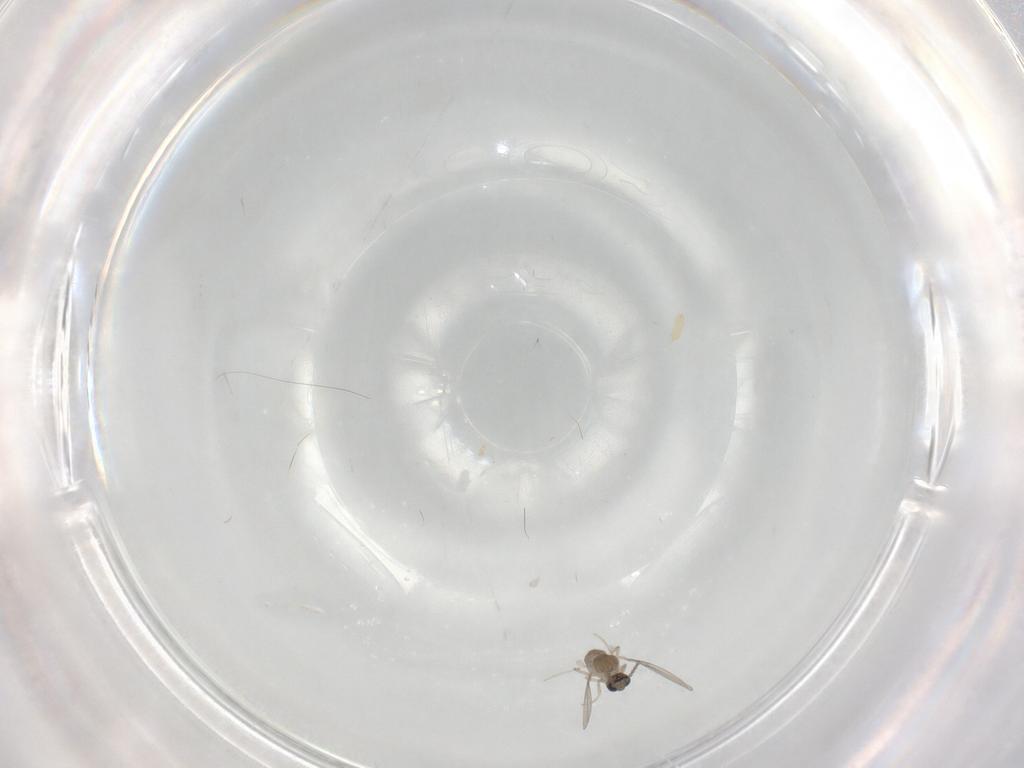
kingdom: Animalia
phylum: Arthropoda
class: Insecta
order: Diptera
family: Cecidomyiidae
